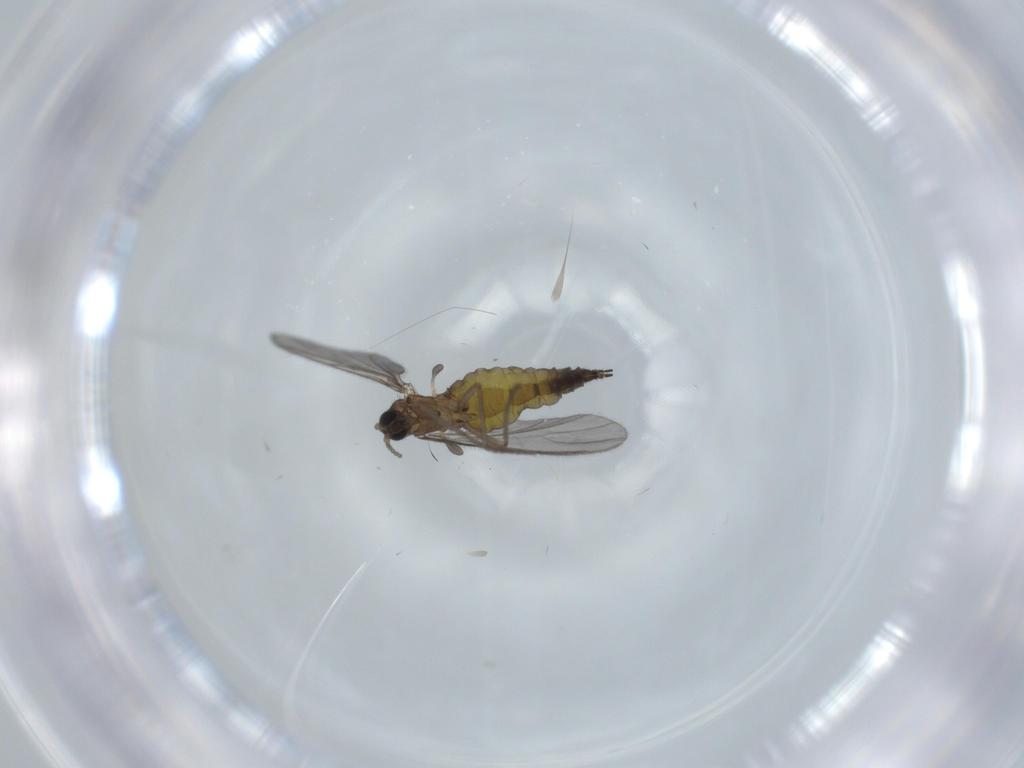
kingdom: Animalia
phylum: Arthropoda
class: Insecta
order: Diptera
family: Sciaridae
